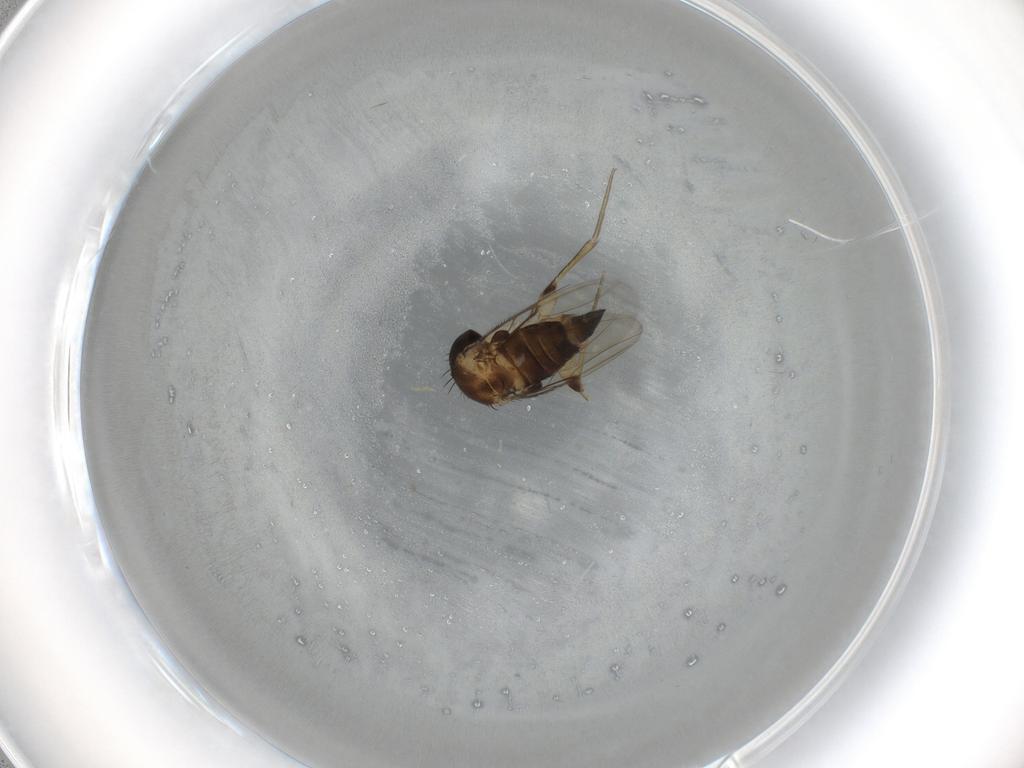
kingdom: Animalia
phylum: Arthropoda
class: Insecta
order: Diptera
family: Phoridae
